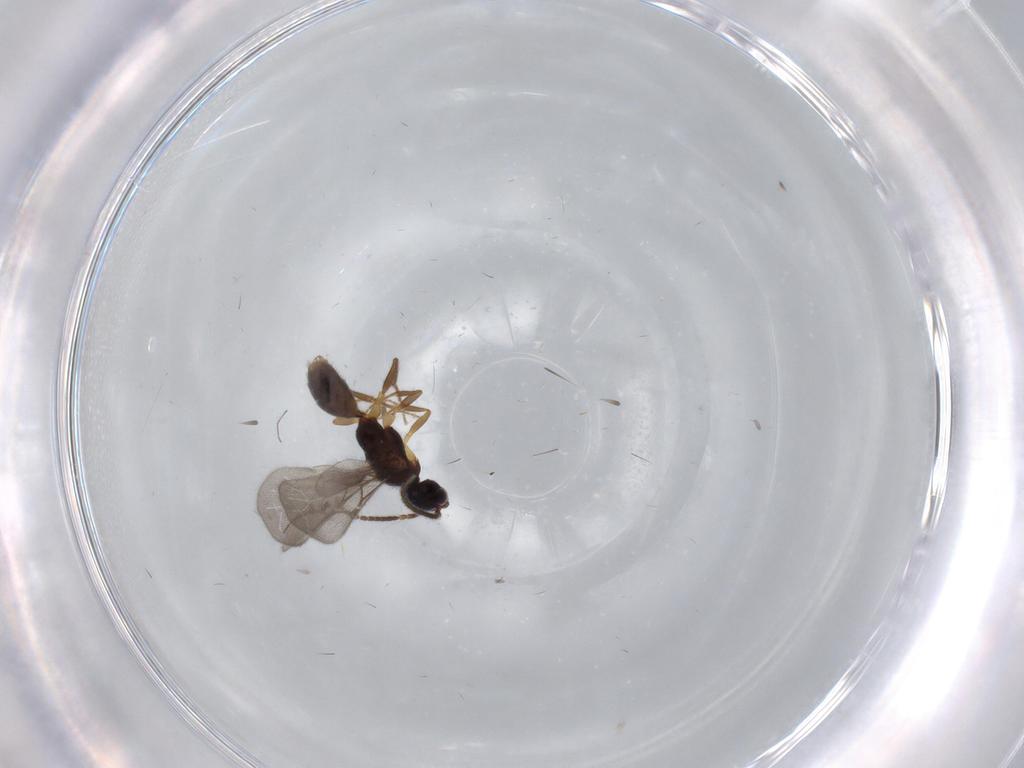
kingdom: Animalia
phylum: Arthropoda
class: Insecta
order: Hymenoptera
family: Bethylidae
